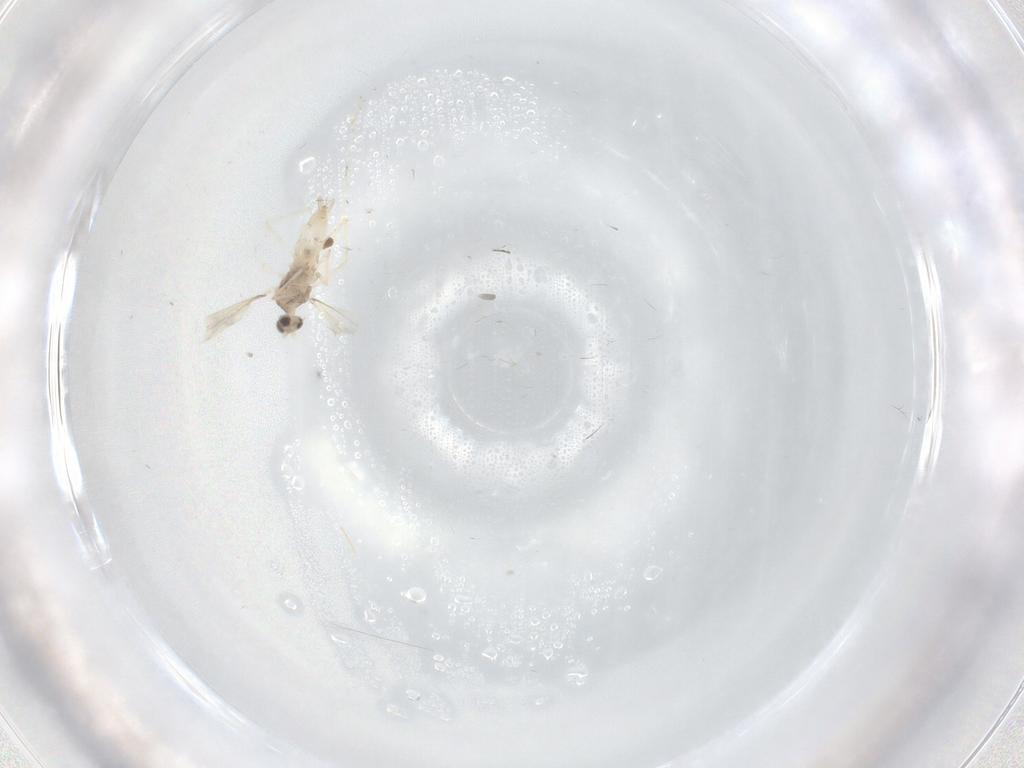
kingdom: Animalia
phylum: Arthropoda
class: Insecta
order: Diptera
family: Cecidomyiidae
